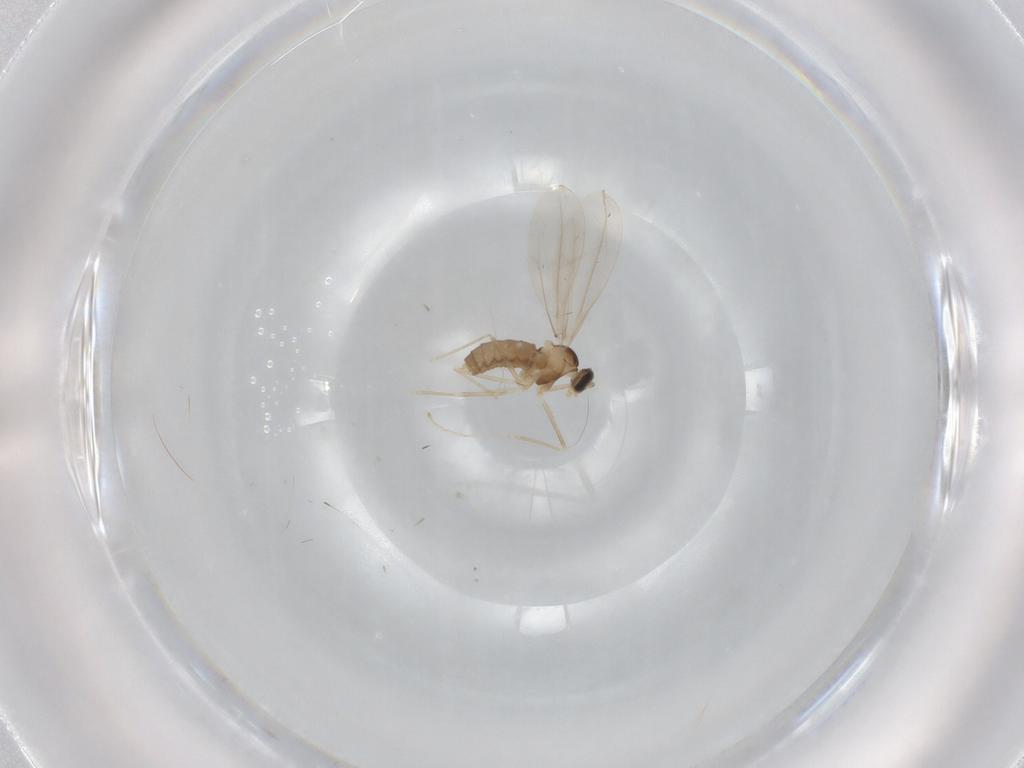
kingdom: Animalia
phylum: Arthropoda
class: Insecta
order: Diptera
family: Cecidomyiidae
